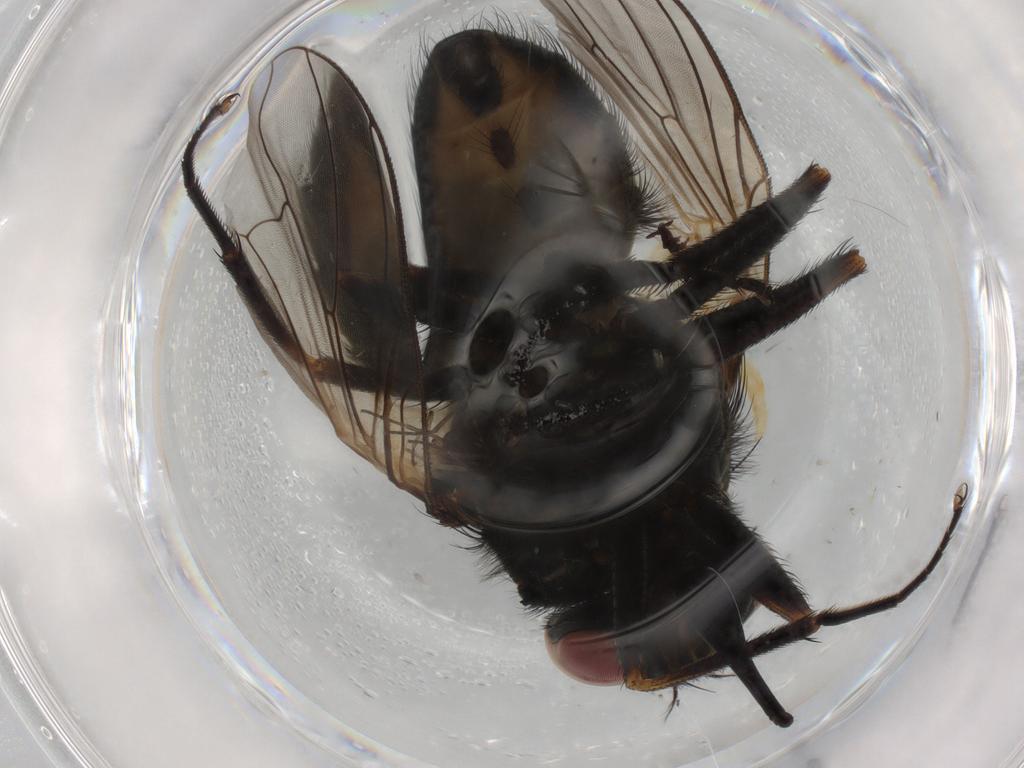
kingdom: Animalia
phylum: Arthropoda
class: Insecta
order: Diptera
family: Muscidae
